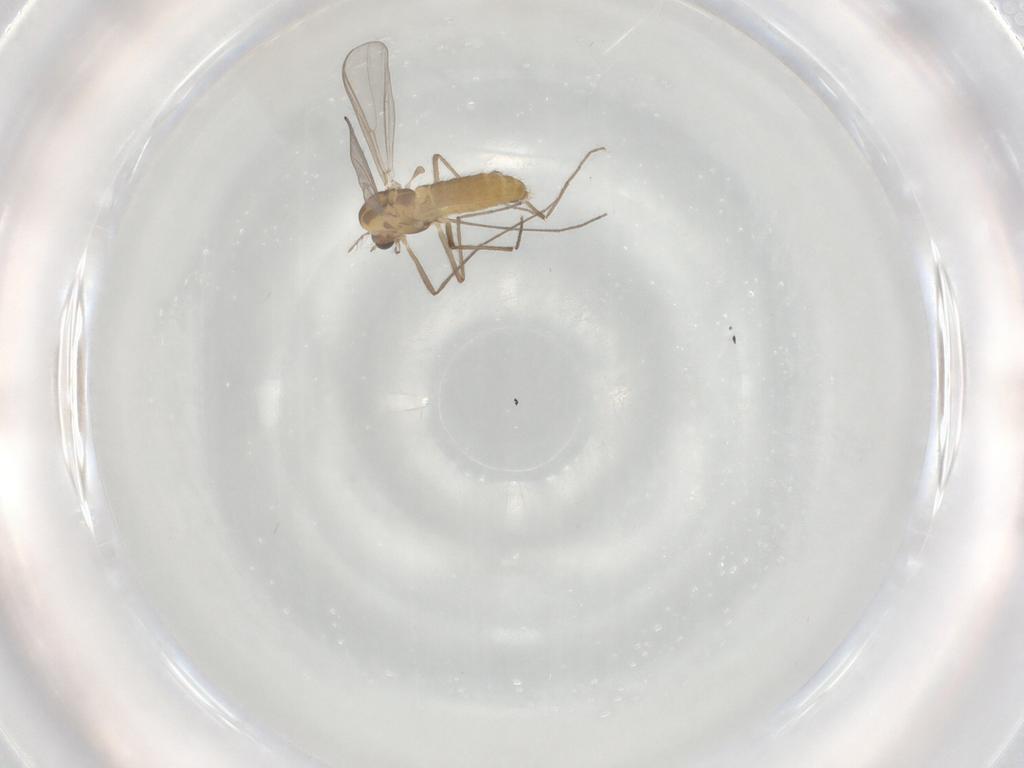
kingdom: Animalia
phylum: Arthropoda
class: Insecta
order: Diptera
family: Chironomidae
